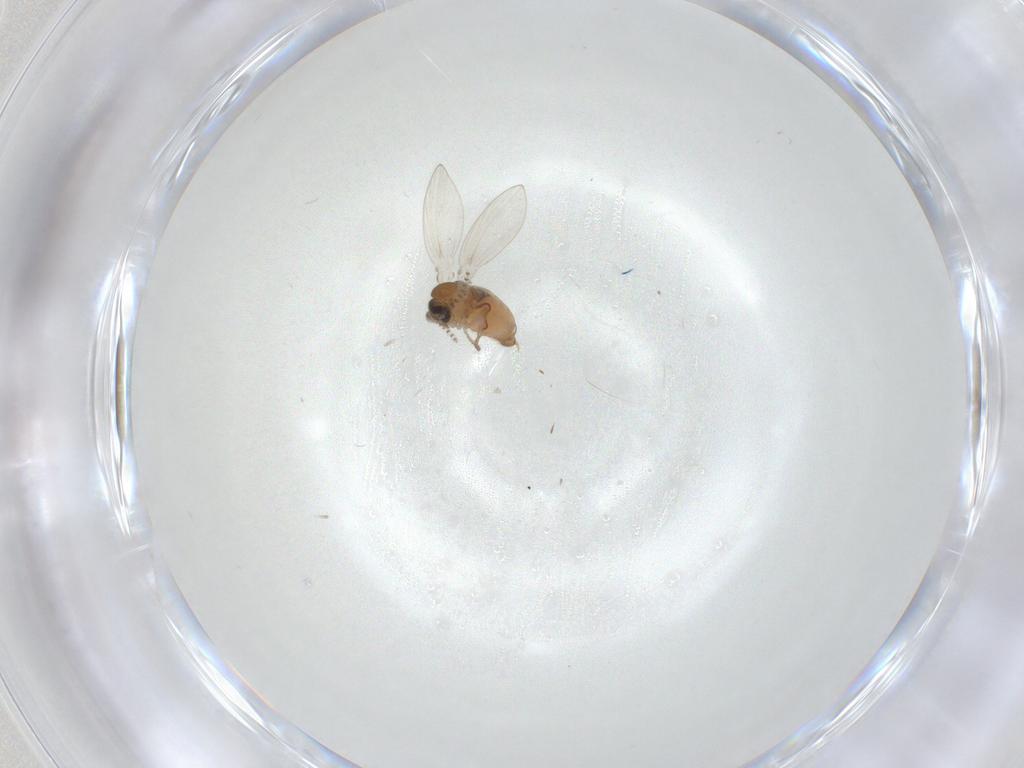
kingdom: Animalia
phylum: Arthropoda
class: Insecta
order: Diptera
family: Psychodidae
